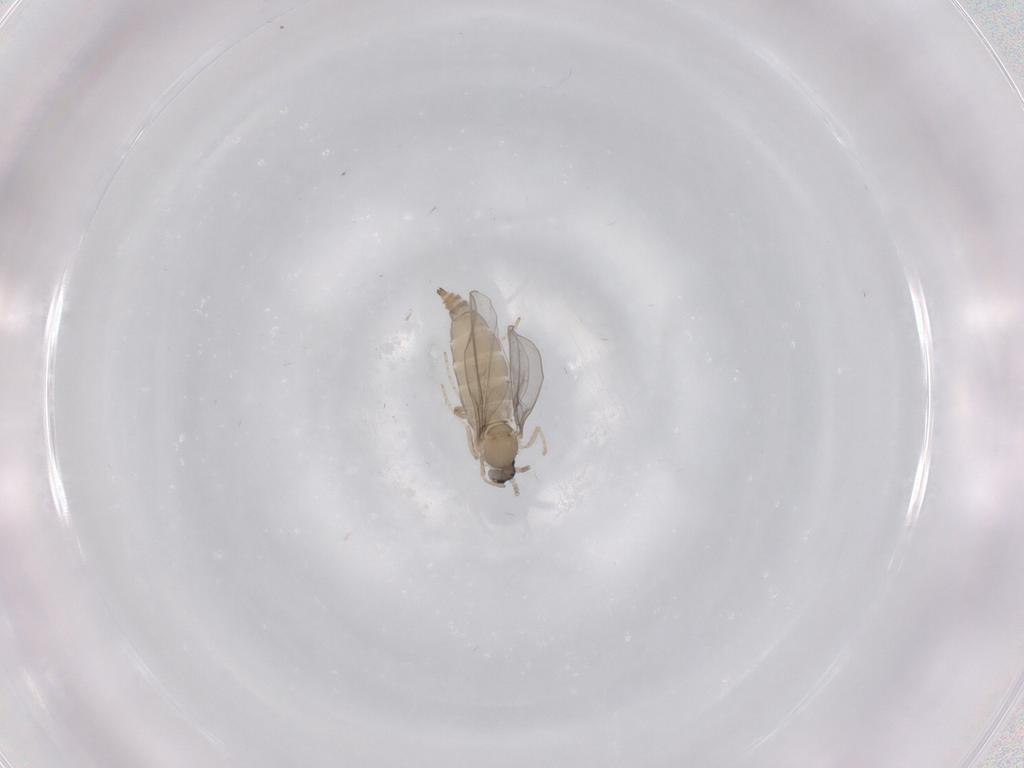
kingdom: Animalia
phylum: Arthropoda
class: Insecta
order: Diptera
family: Cecidomyiidae
